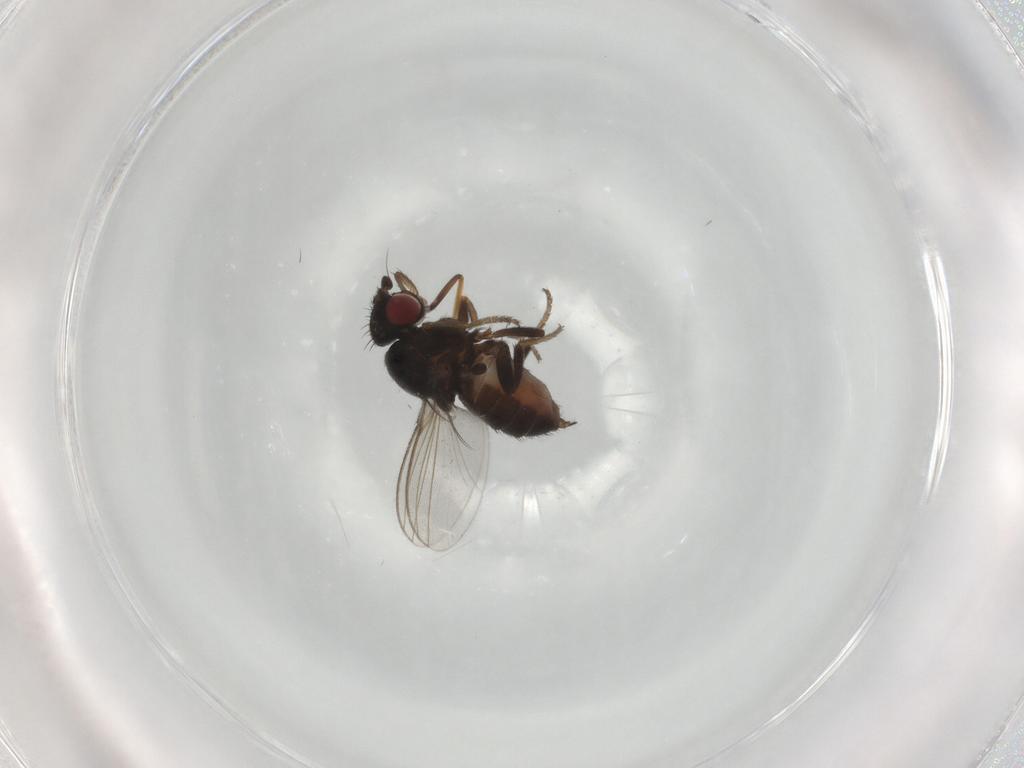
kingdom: Animalia
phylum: Arthropoda
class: Insecta
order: Diptera
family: Milichiidae
